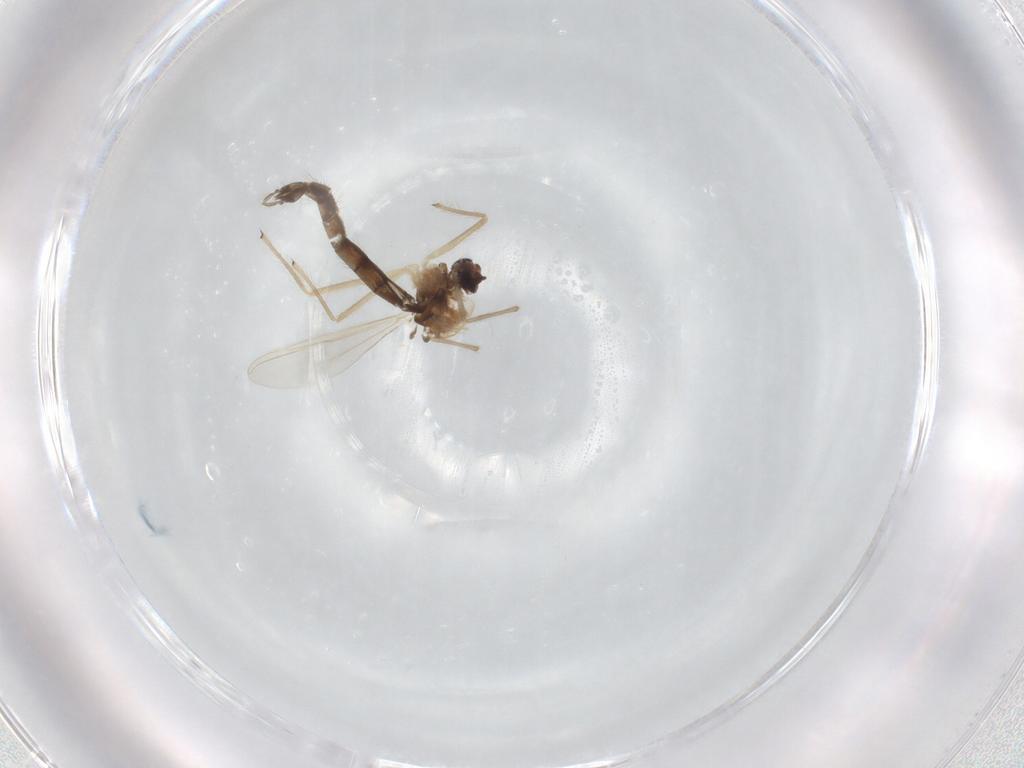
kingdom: Animalia
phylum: Arthropoda
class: Insecta
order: Diptera
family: Chironomidae
